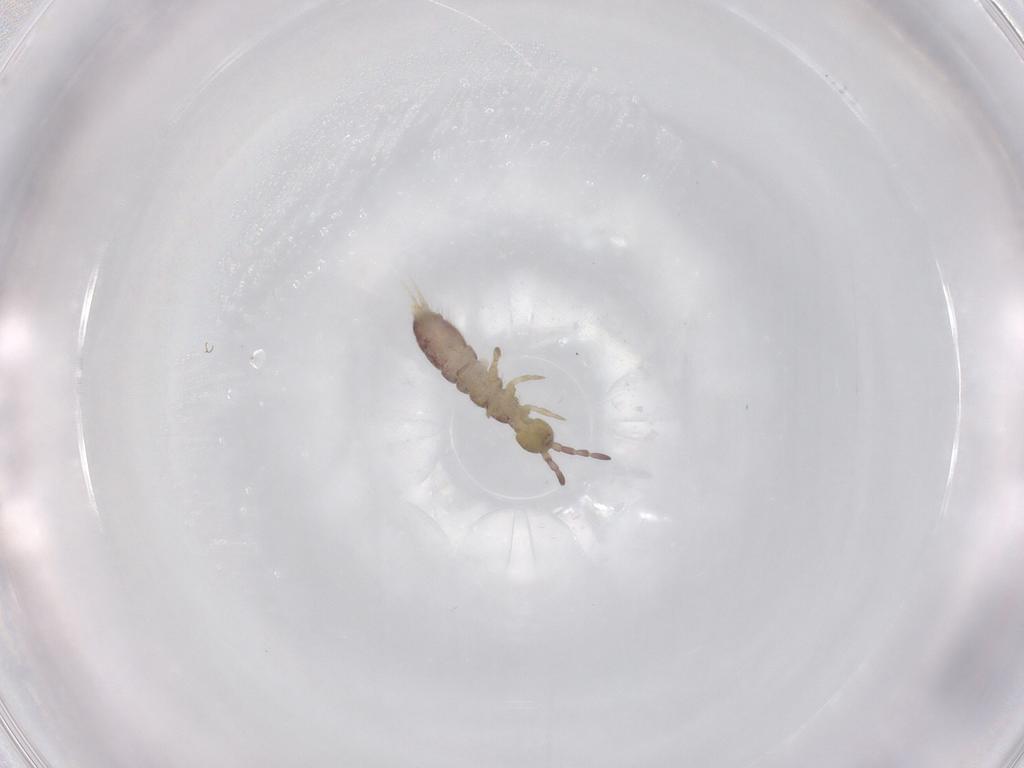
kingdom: Animalia
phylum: Arthropoda
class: Collembola
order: Entomobryomorpha
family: Isotomidae
